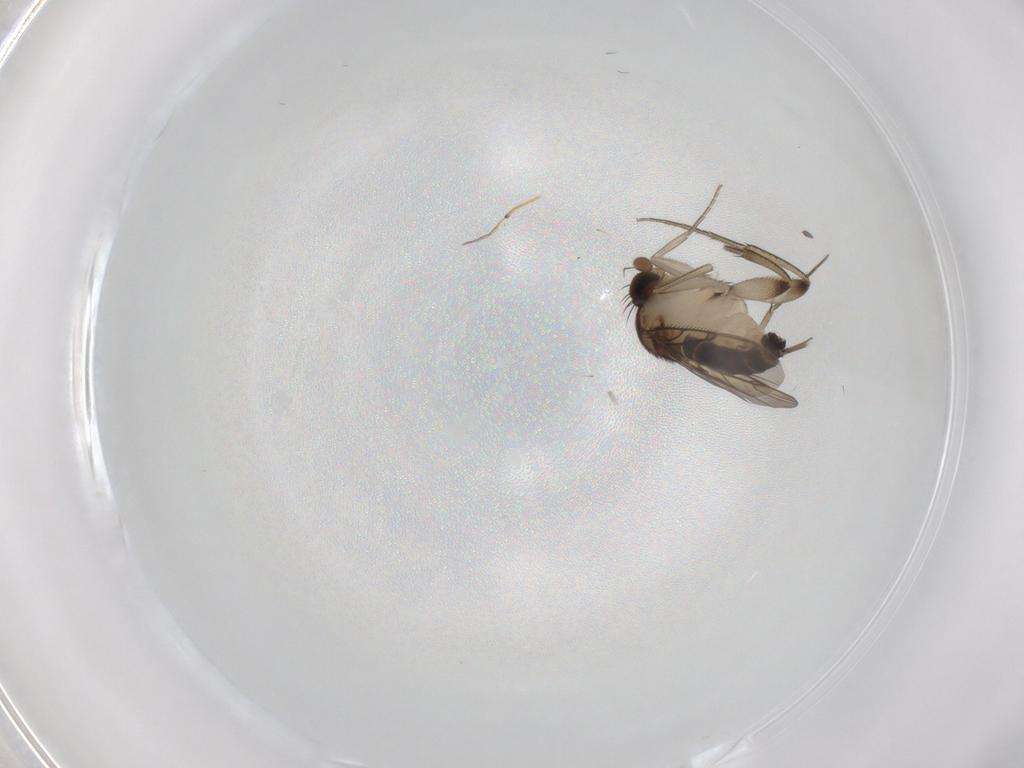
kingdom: Animalia
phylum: Arthropoda
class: Insecta
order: Diptera
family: Phoridae
